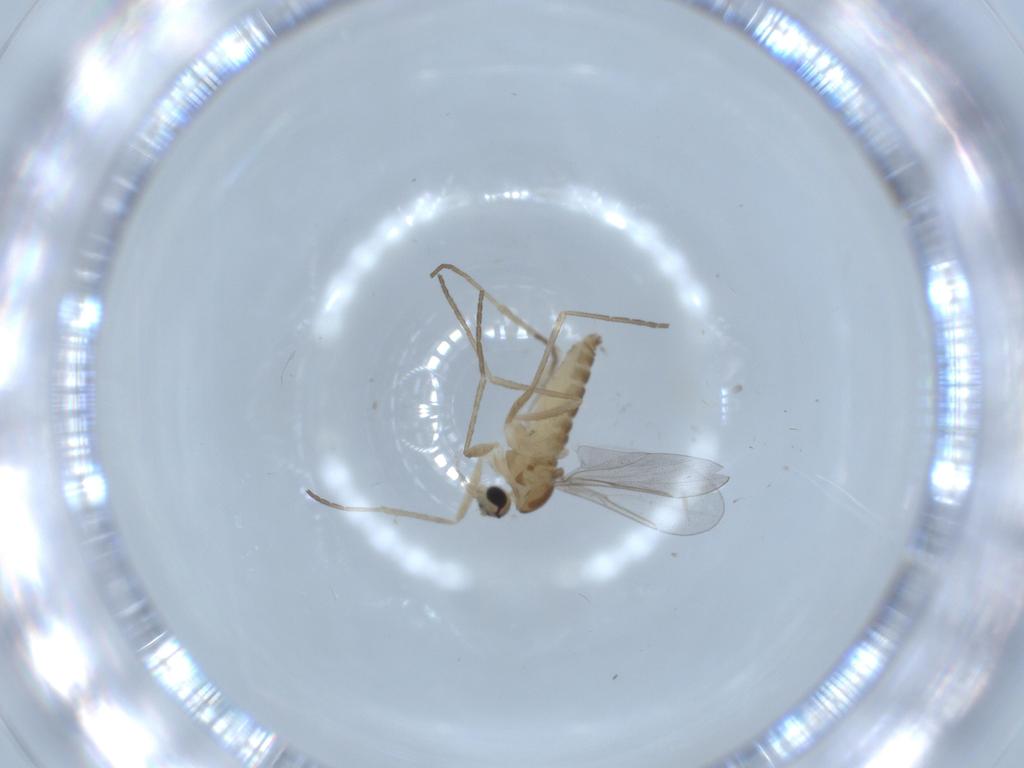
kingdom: Animalia
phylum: Arthropoda
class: Insecta
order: Diptera
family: Cecidomyiidae
